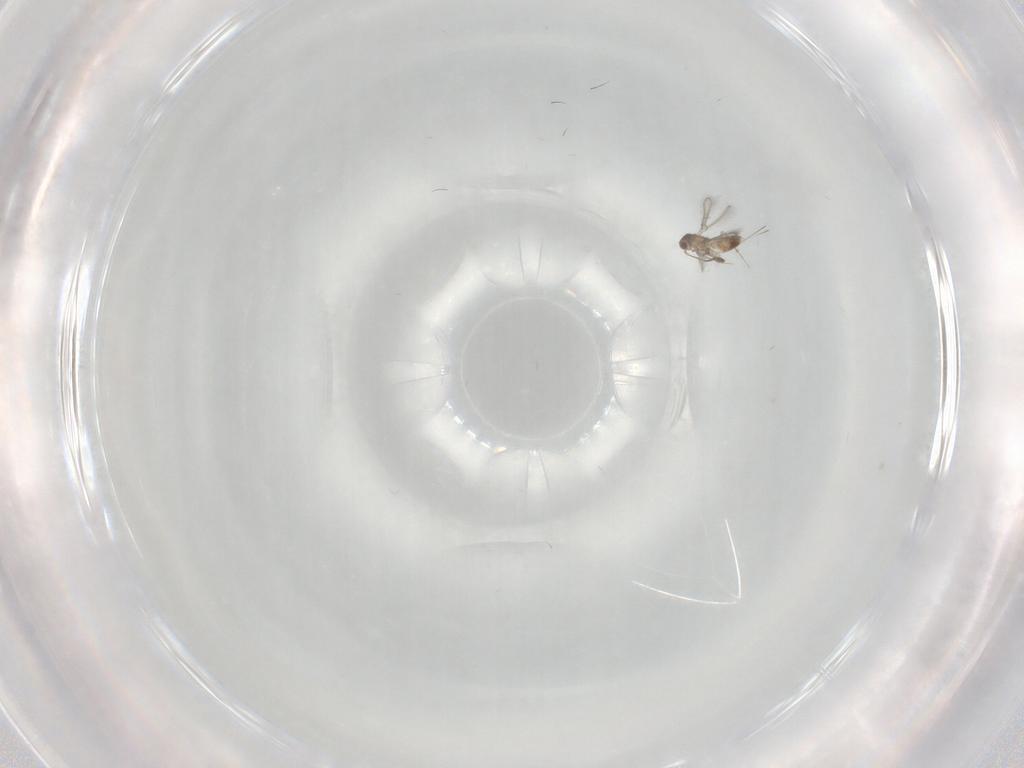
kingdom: Animalia
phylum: Arthropoda
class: Insecta
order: Hymenoptera
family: Mymaridae
